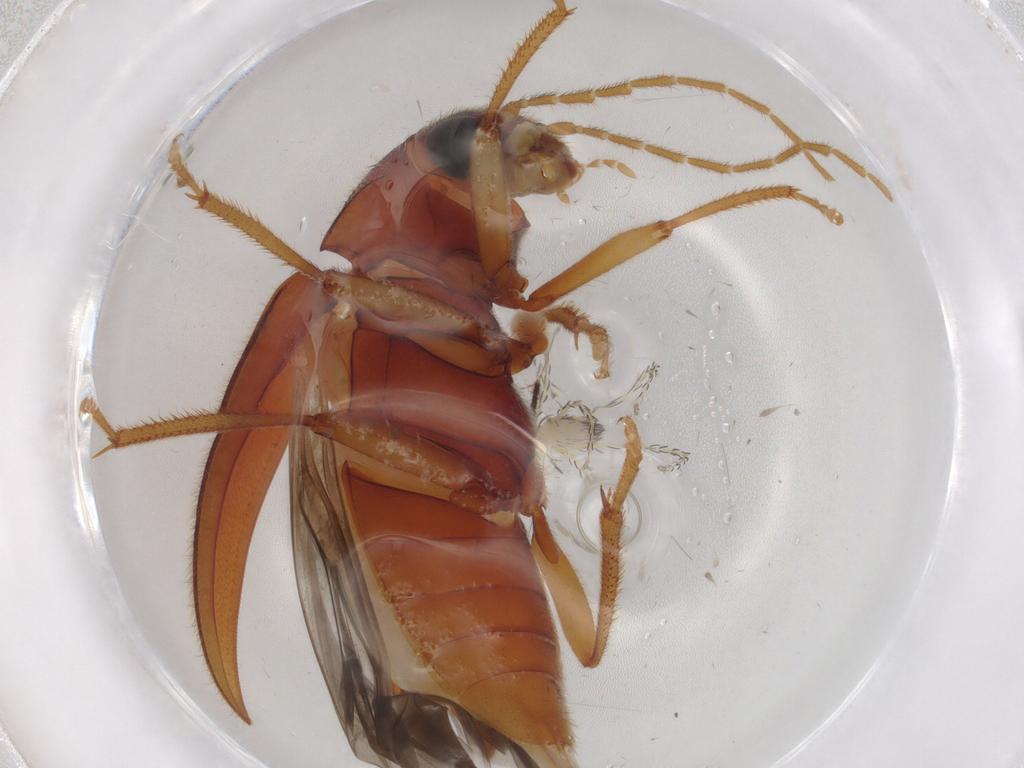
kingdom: Animalia
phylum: Arthropoda
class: Insecta
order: Coleoptera
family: Ptilodactylidae
